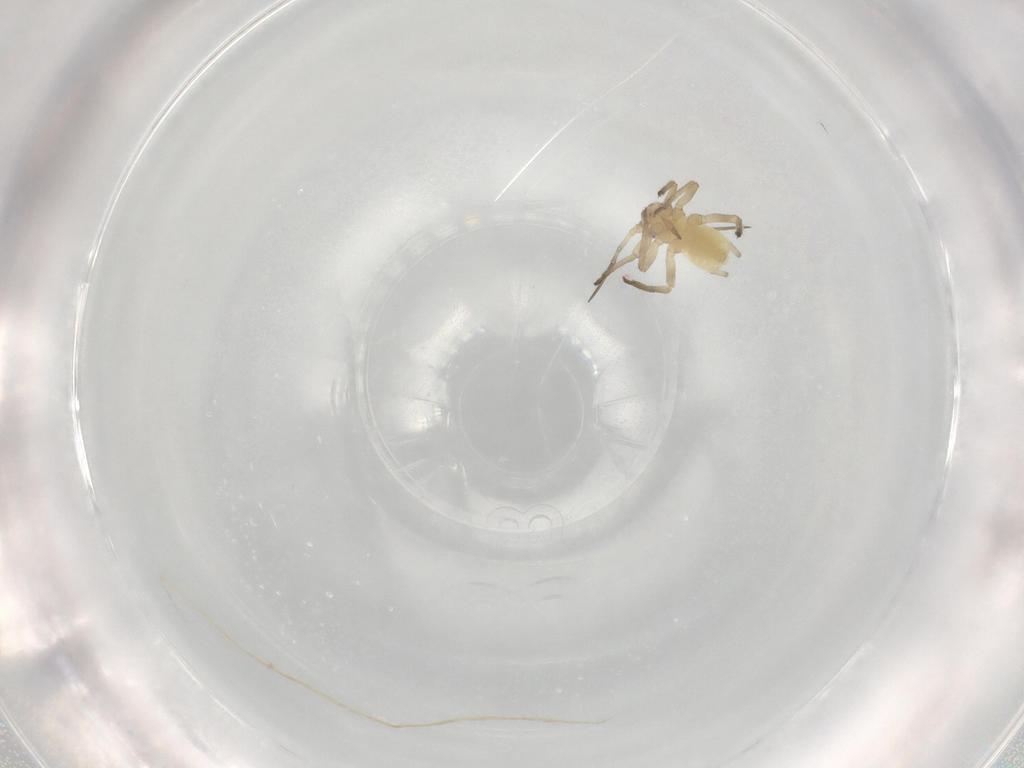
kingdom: Animalia
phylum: Arthropoda
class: Insecta
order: Hemiptera
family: Aphididae
